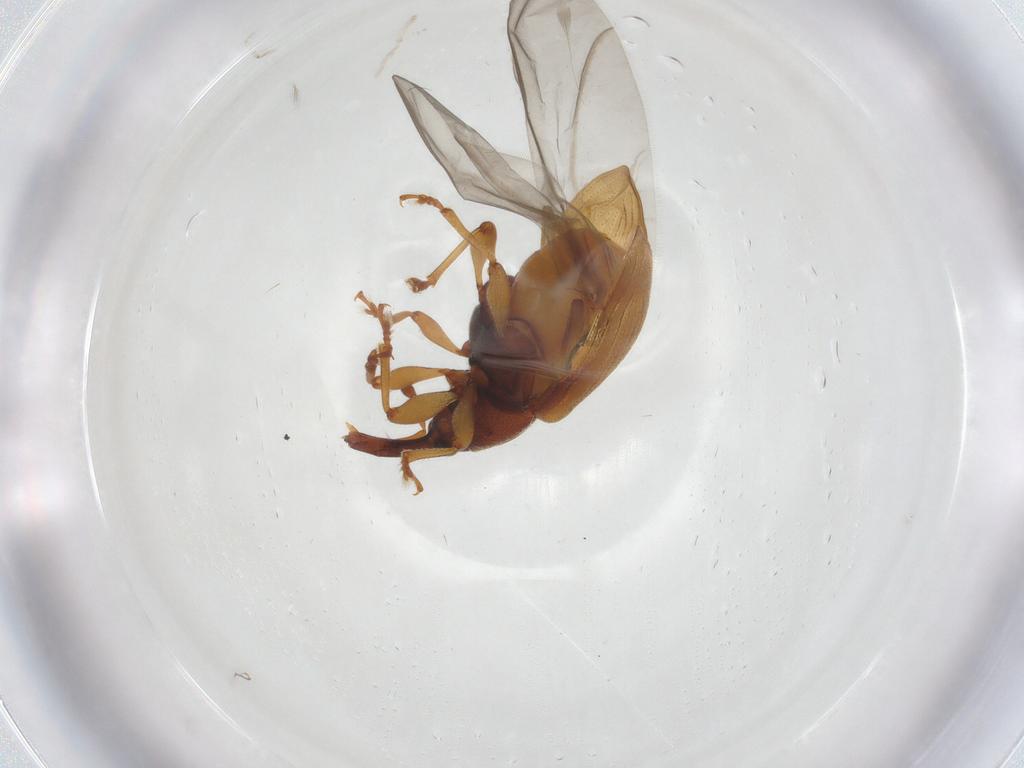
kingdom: Animalia
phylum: Arthropoda
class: Insecta
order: Coleoptera
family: Curculionidae
